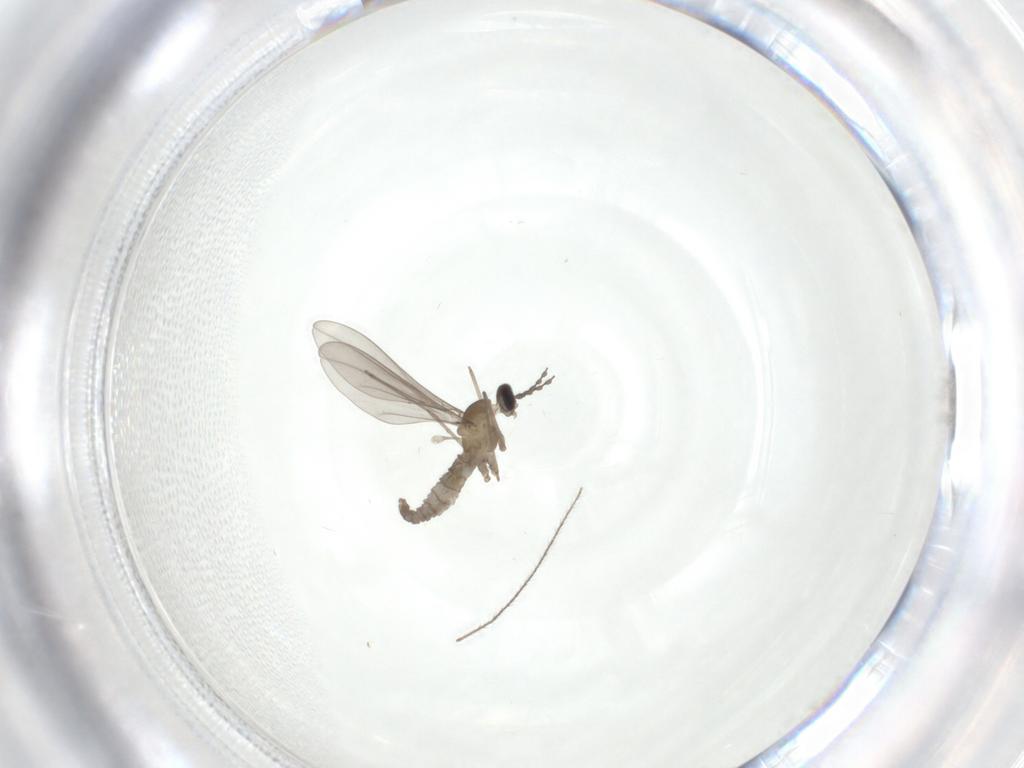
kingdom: Animalia
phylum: Arthropoda
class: Insecta
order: Diptera
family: Cecidomyiidae
